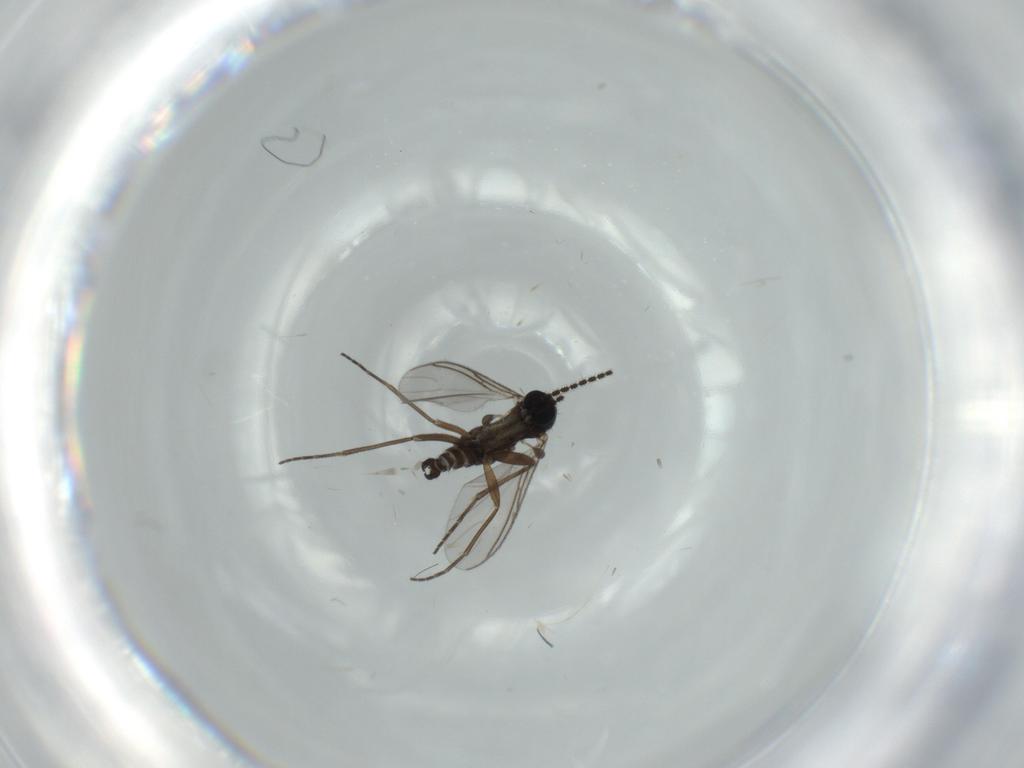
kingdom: Animalia
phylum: Arthropoda
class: Insecta
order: Diptera
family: Sciaridae
